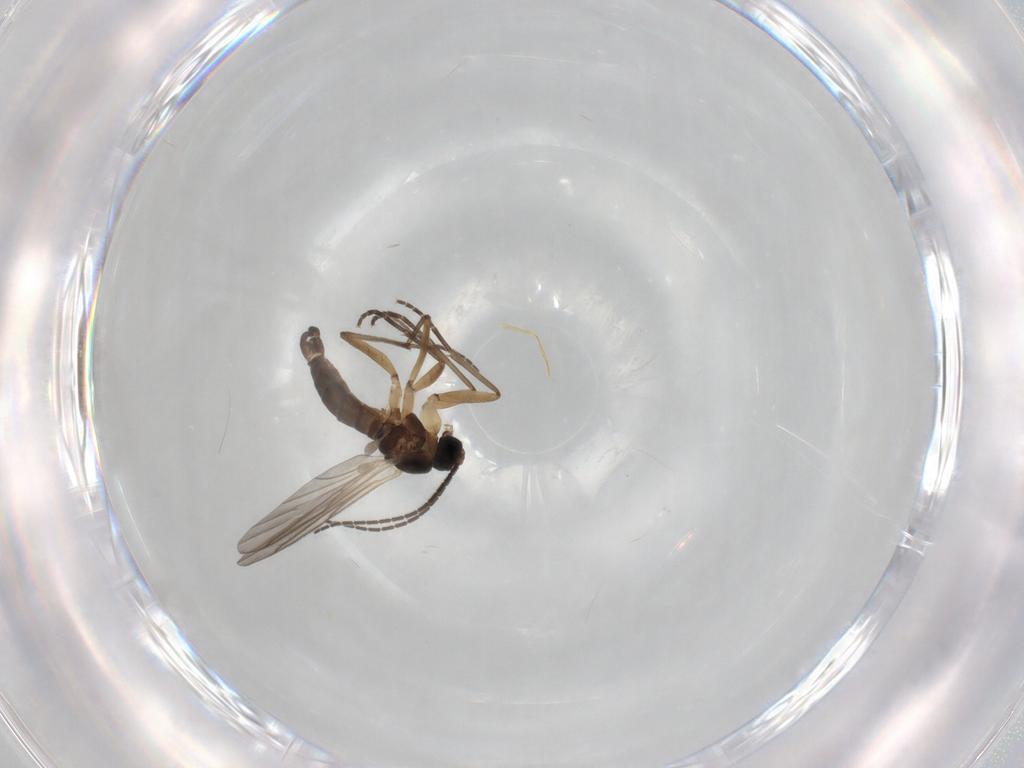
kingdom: Animalia
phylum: Arthropoda
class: Insecta
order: Diptera
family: Sciaridae
